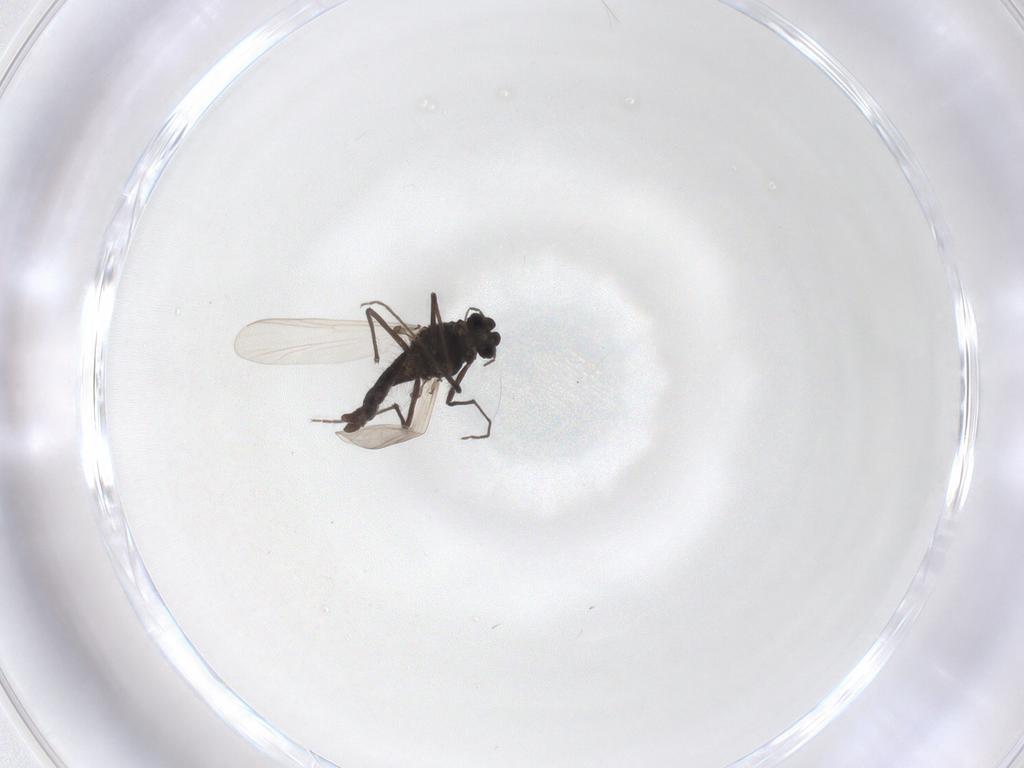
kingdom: Animalia
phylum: Arthropoda
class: Insecta
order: Diptera
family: Chironomidae
